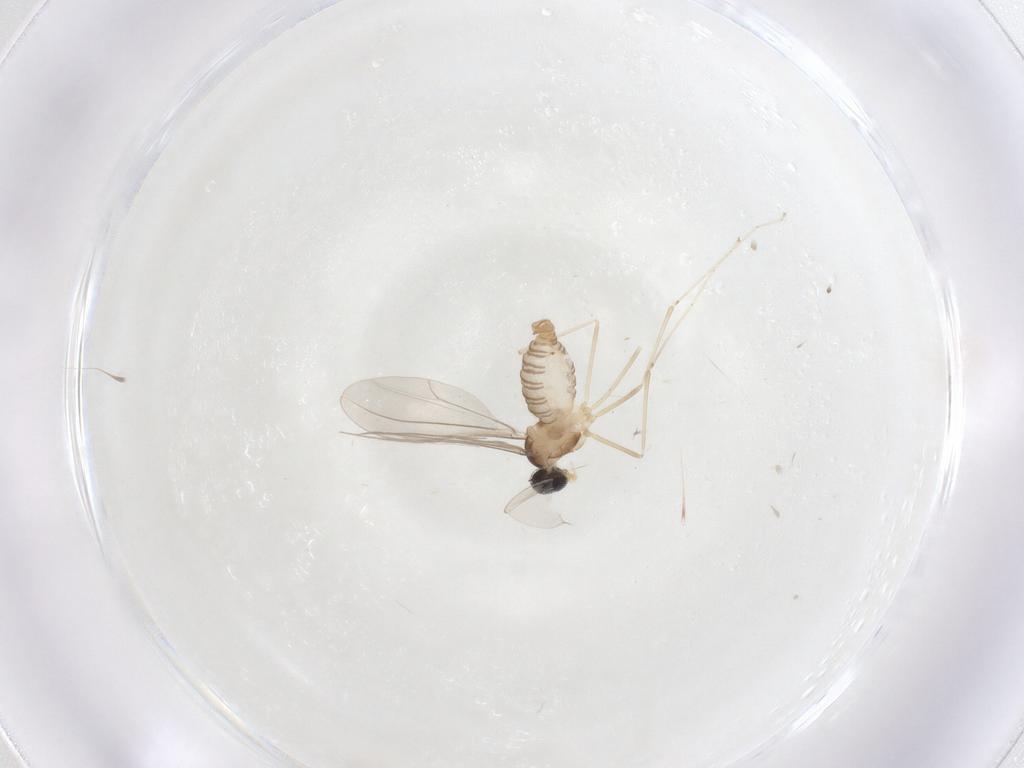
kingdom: Animalia
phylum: Arthropoda
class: Insecta
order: Diptera
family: Cecidomyiidae
